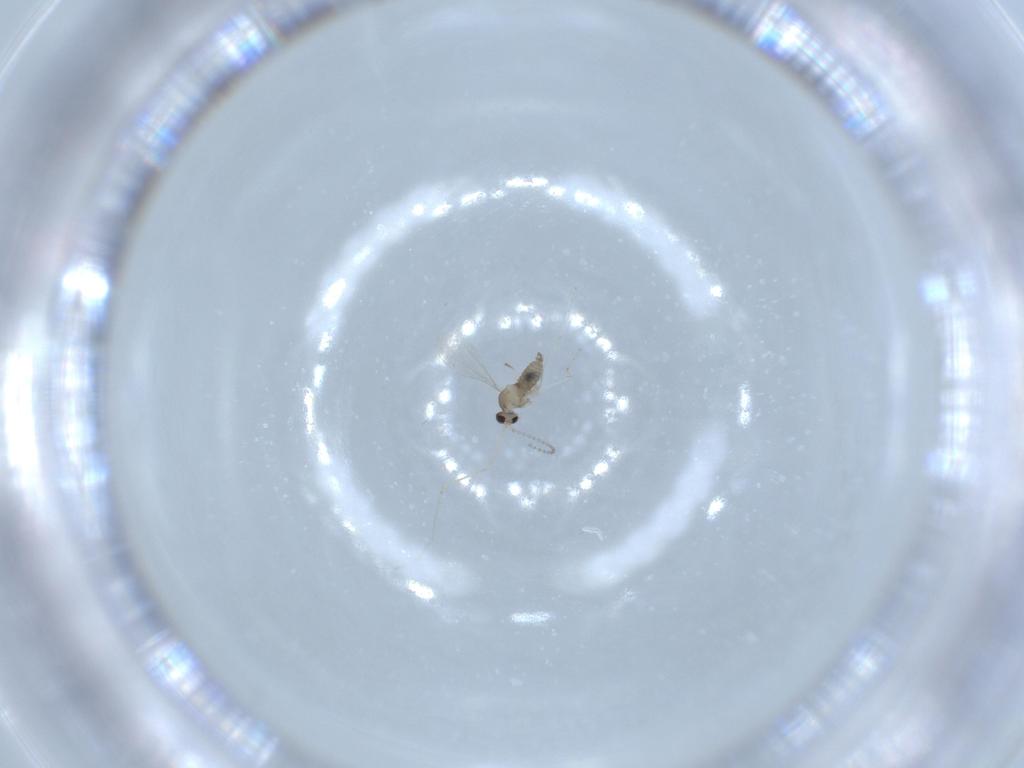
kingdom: Animalia
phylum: Arthropoda
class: Insecta
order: Diptera
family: Cecidomyiidae
